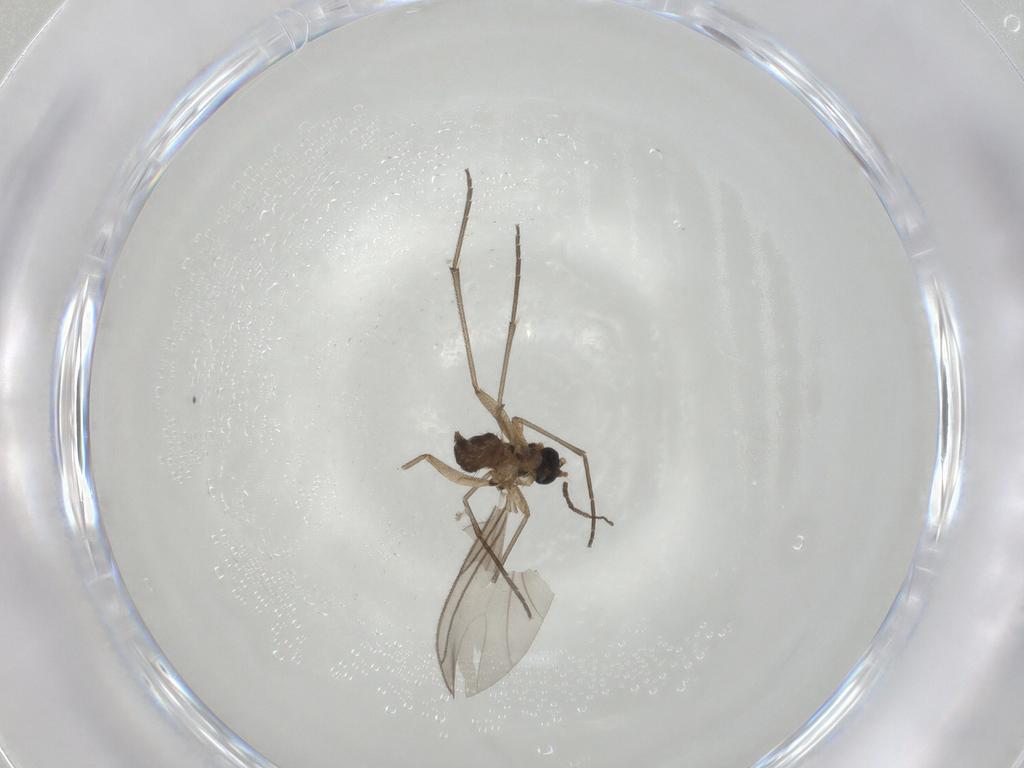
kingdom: Animalia
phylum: Arthropoda
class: Insecta
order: Diptera
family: Sciaridae
